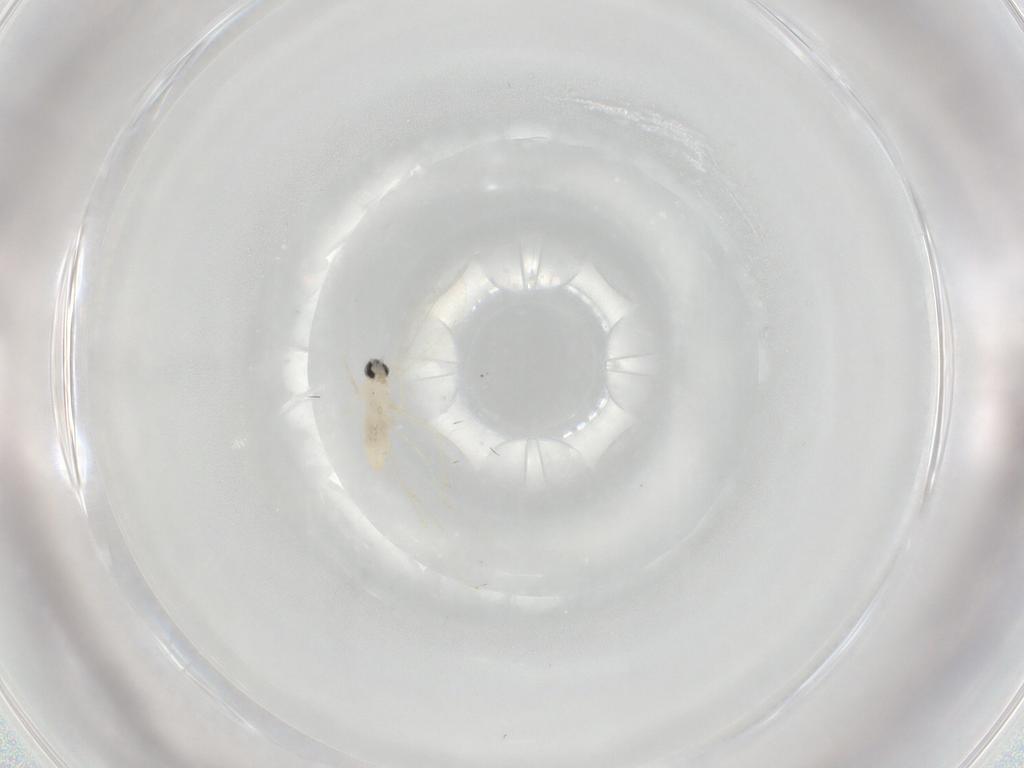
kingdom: Animalia
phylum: Arthropoda
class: Insecta
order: Diptera
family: Cecidomyiidae
